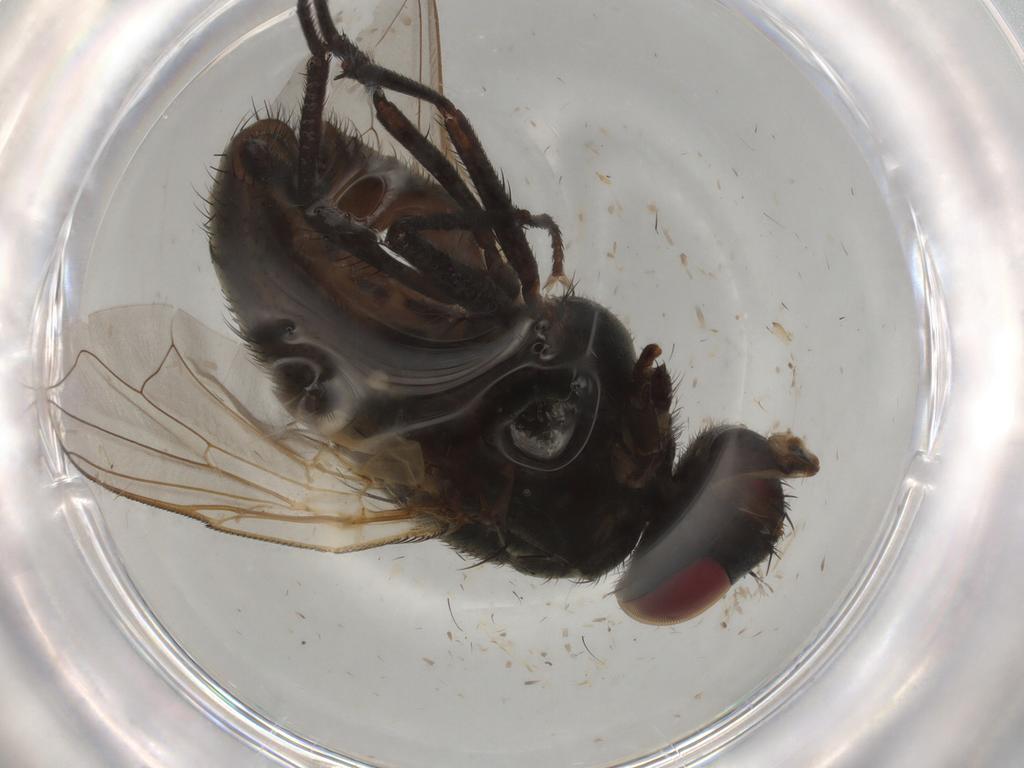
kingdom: Animalia
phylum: Arthropoda
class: Insecta
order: Diptera
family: Muscidae
